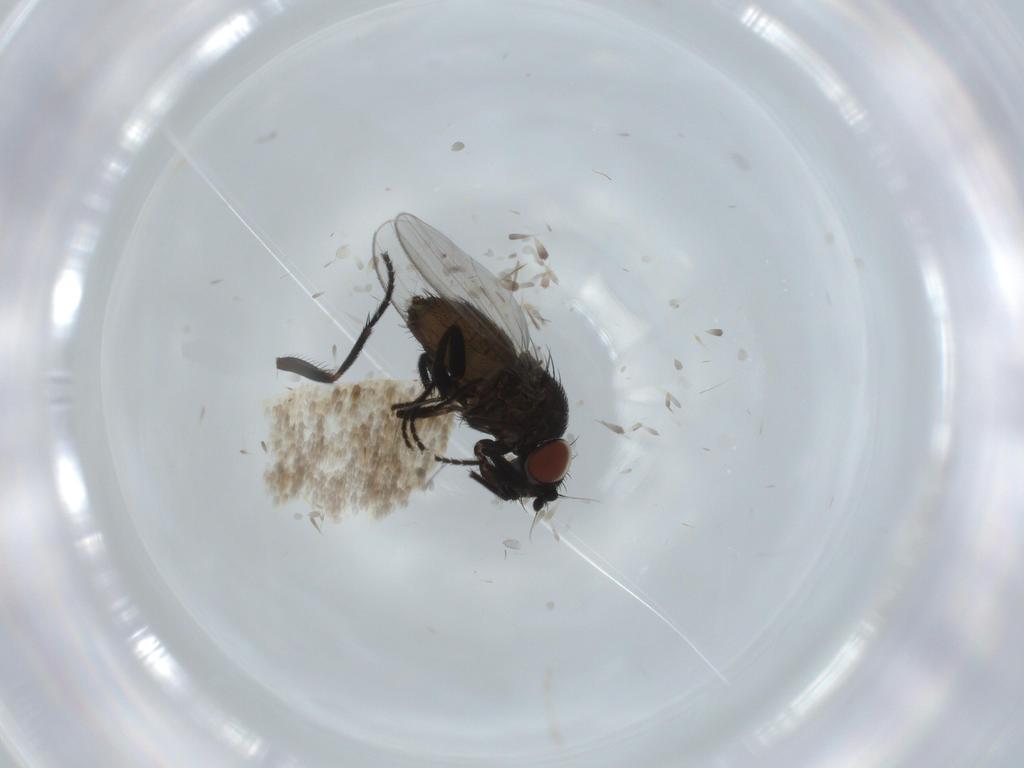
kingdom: Animalia
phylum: Arthropoda
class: Insecta
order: Diptera
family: Milichiidae
